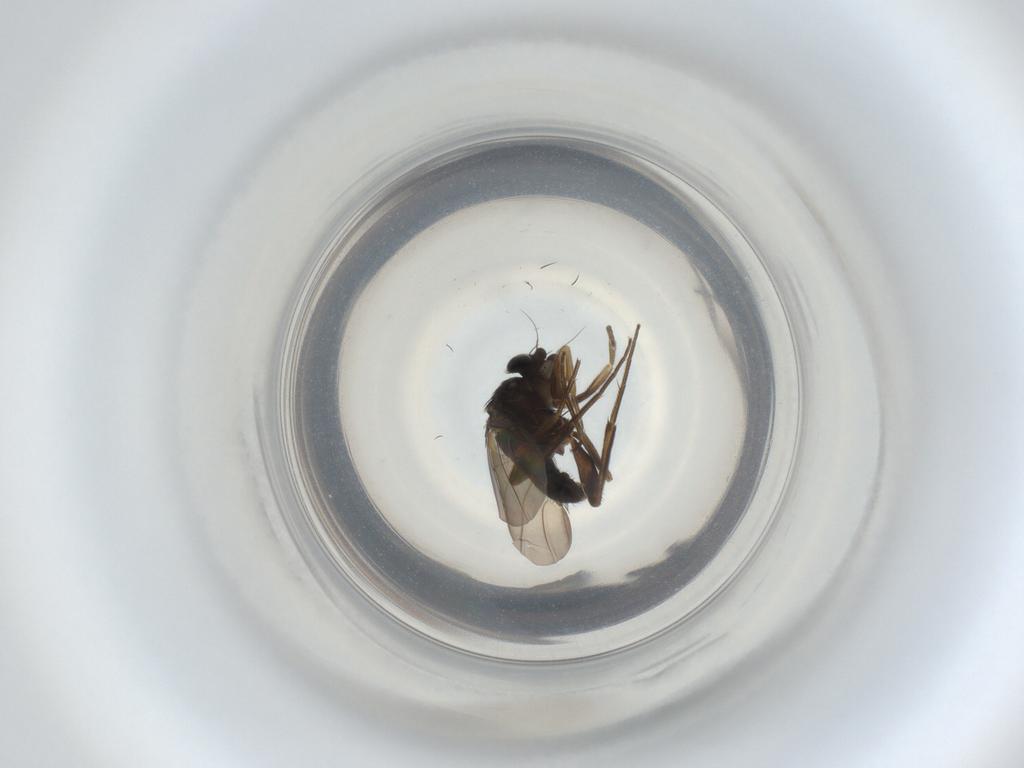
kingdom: Animalia
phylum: Arthropoda
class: Insecta
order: Diptera
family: Phoridae
